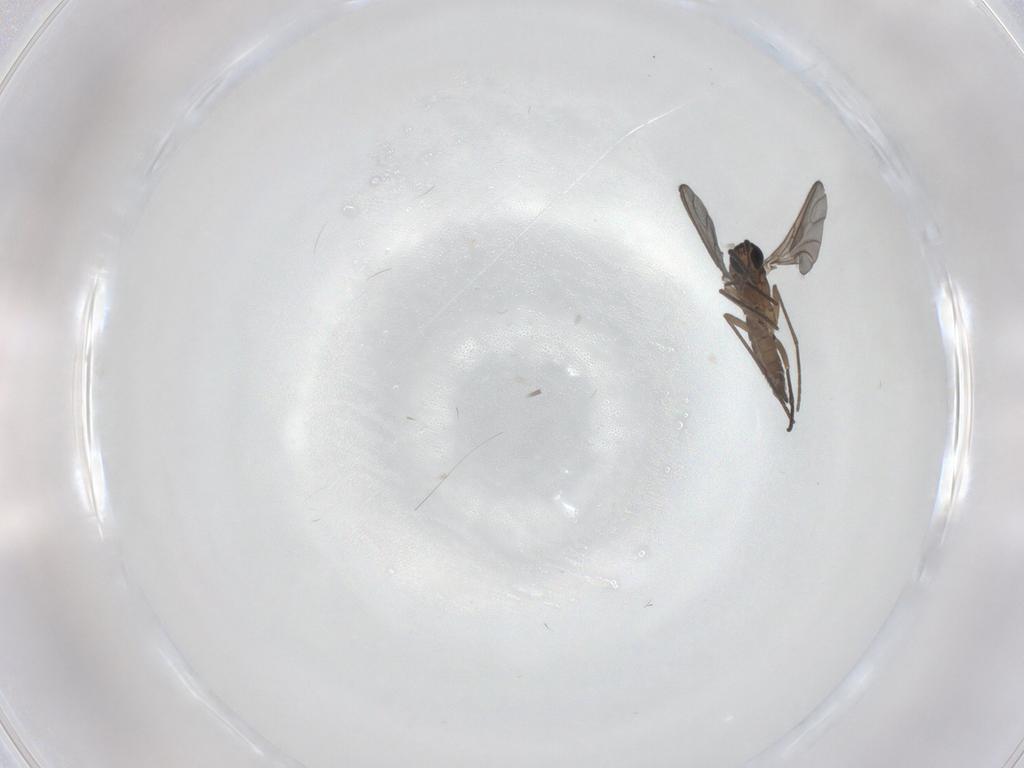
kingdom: Animalia
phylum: Arthropoda
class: Insecta
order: Diptera
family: Sciaridae
